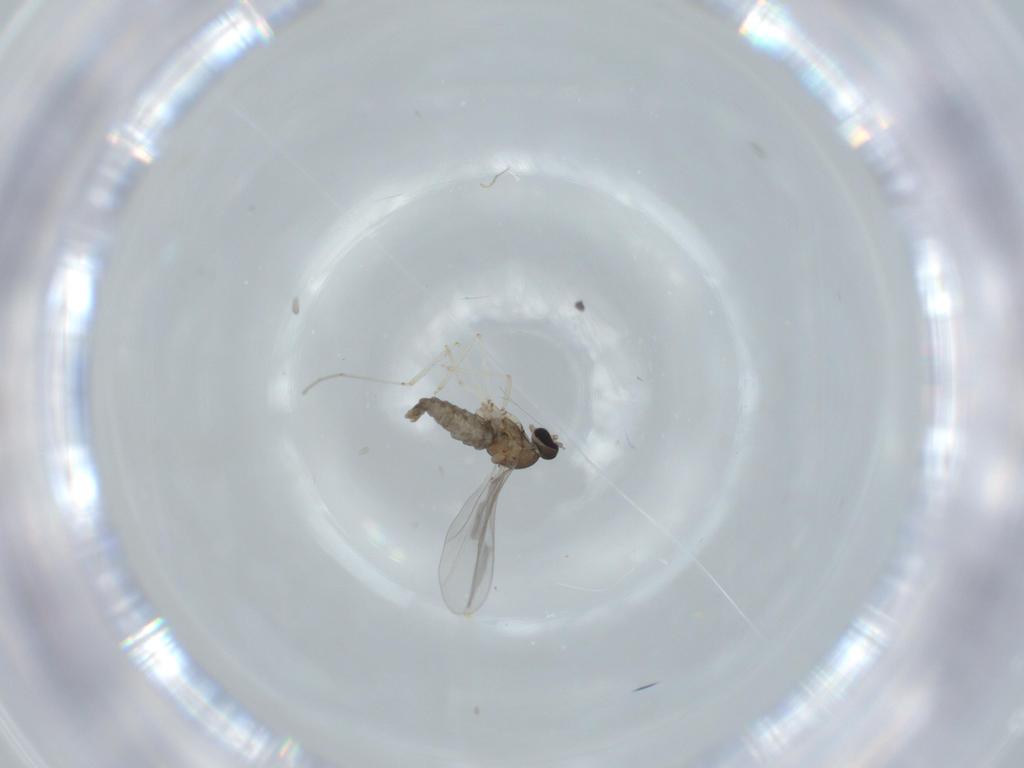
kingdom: Animalia
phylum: Arthropoda
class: Insecta
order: Diptera
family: Cecidomyiidae
